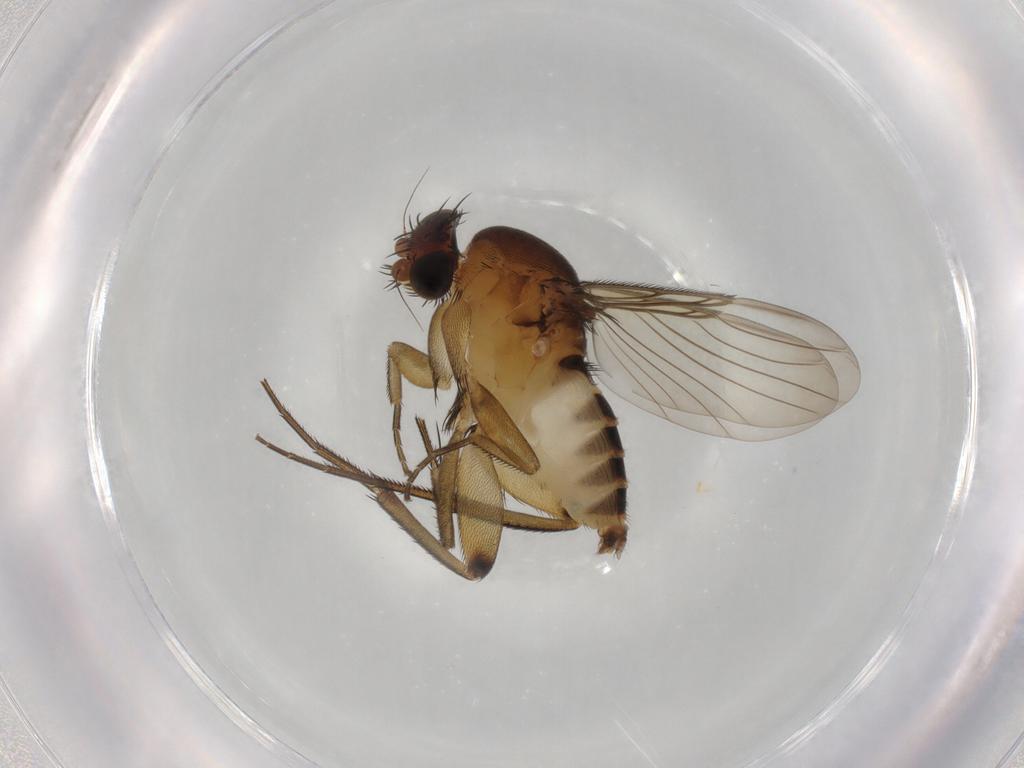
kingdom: Animalia
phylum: Arthropoda
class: Insecta
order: Diptera
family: Phoridae
